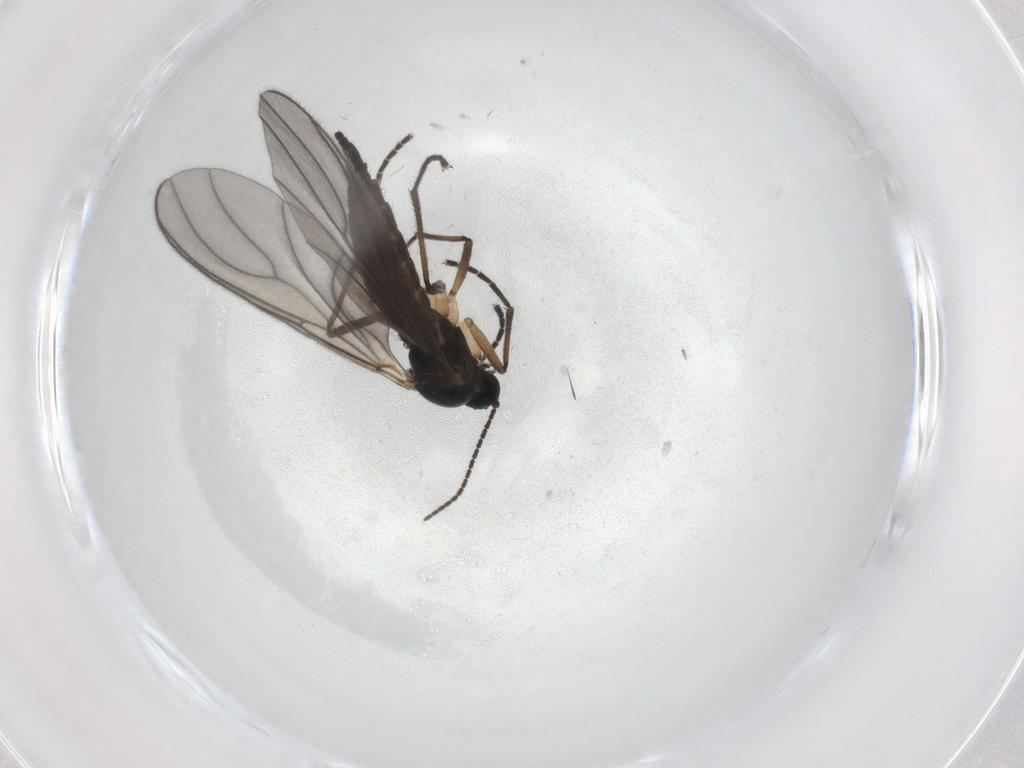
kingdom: Animalia
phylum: Arthropoda
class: Insecta
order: Diptera
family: Sciaridae
